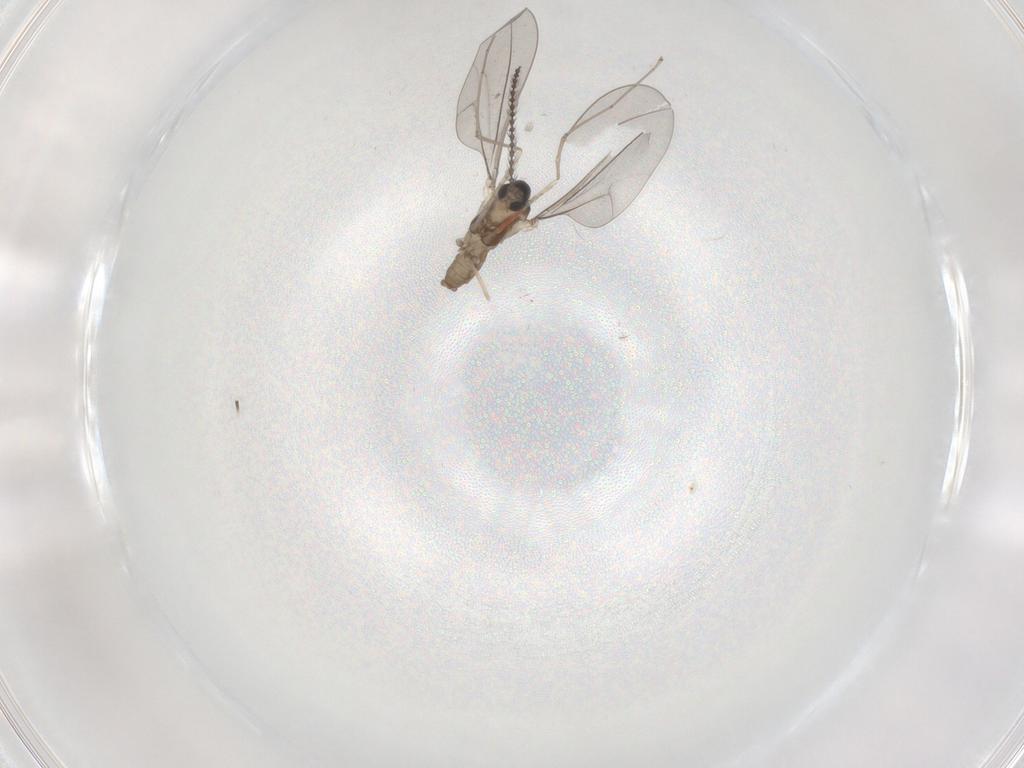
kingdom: Animalia
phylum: Arthropoda
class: Insecta
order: Diptera
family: Cecidomyiidae
